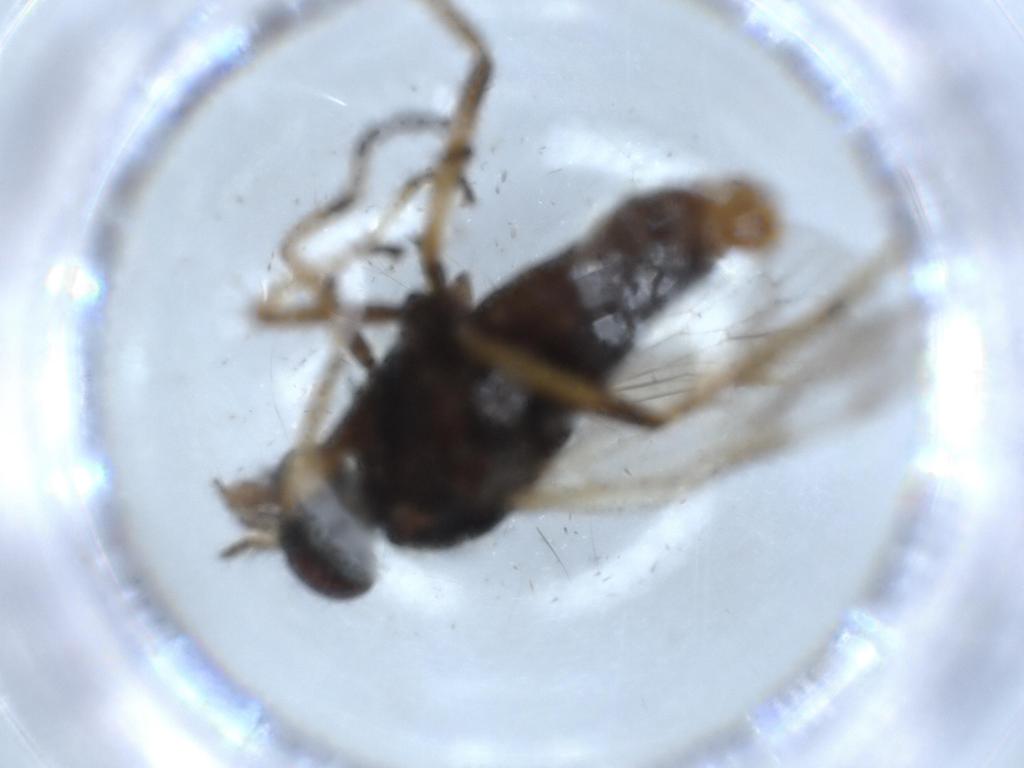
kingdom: Animalia
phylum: Arthropoda
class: Insecta
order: Diptera
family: Therevidae
